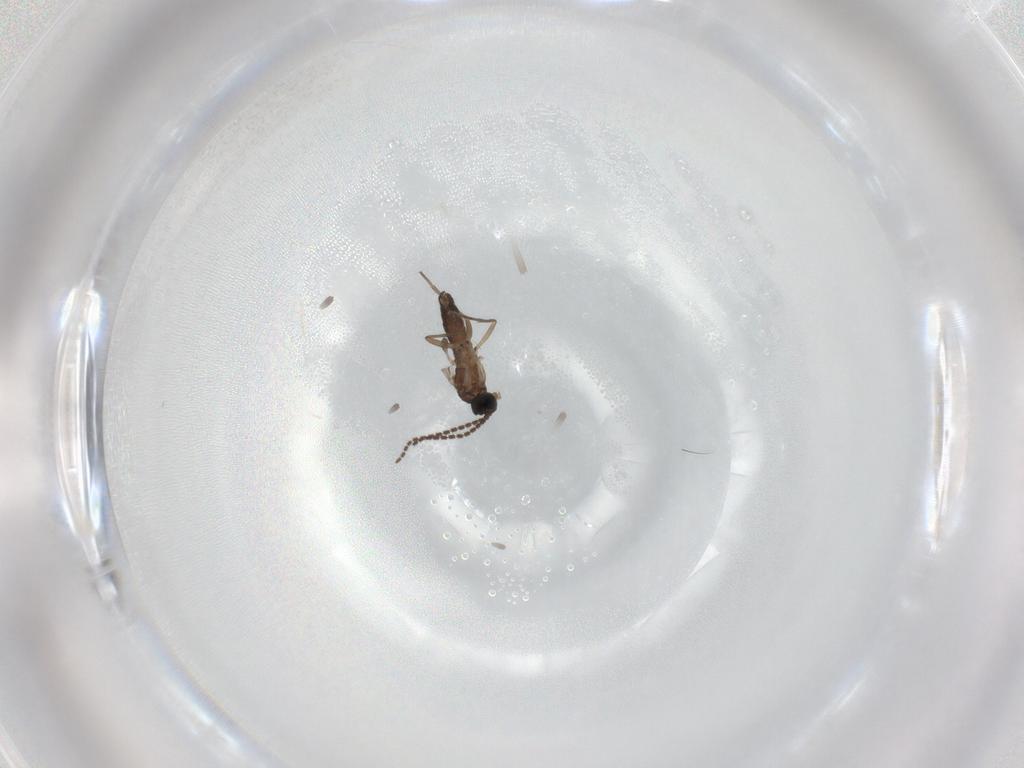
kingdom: Animalia
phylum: Arthropoda
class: Insecta
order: Diptera
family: Sciaridae
